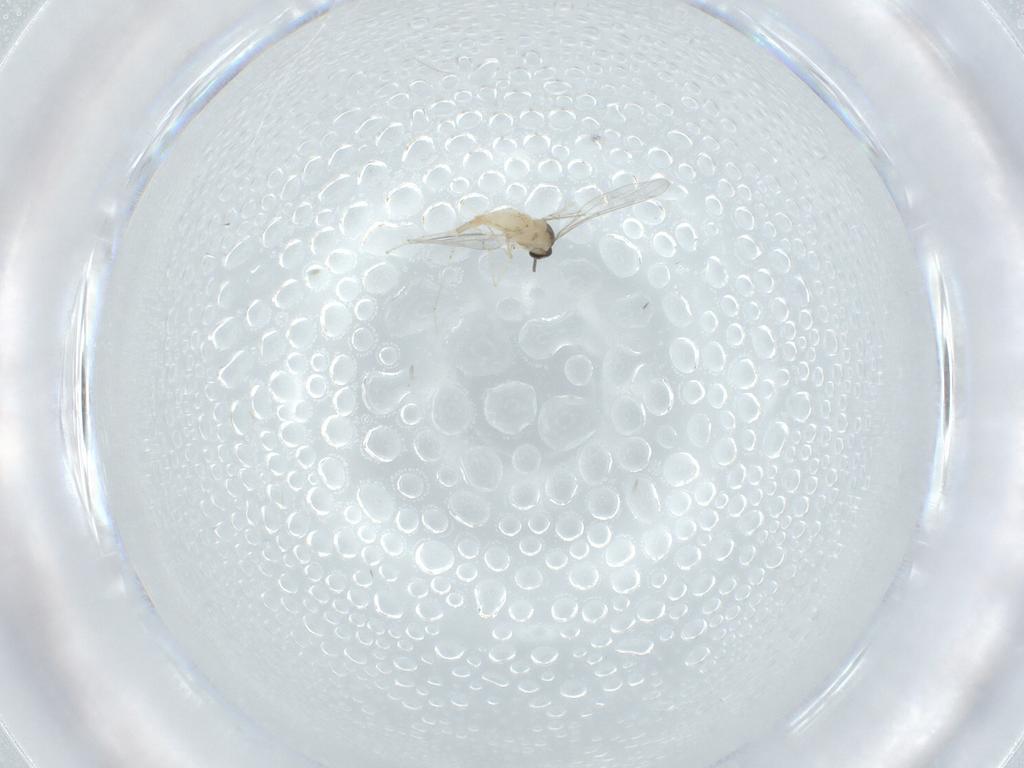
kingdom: Animalia
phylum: Arthropoda
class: Insecta
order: Diptera
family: Cecidomyiidae
